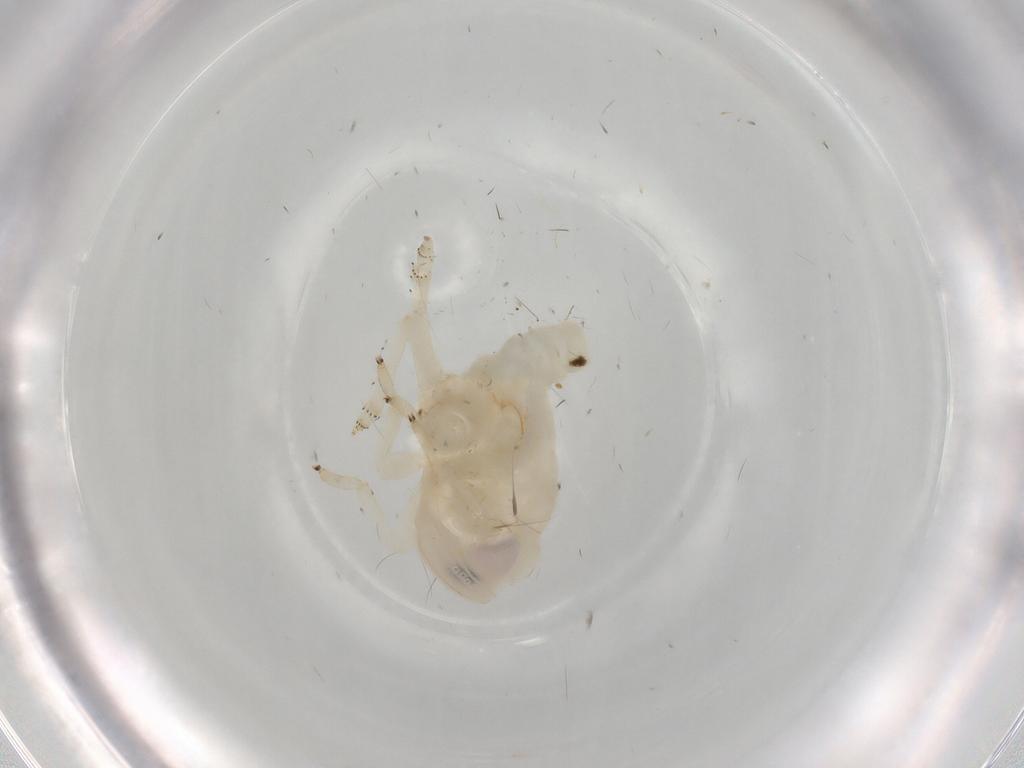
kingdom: Animalia
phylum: Arthropoda
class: Insecta
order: Hemiptera
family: Nogodinidae
